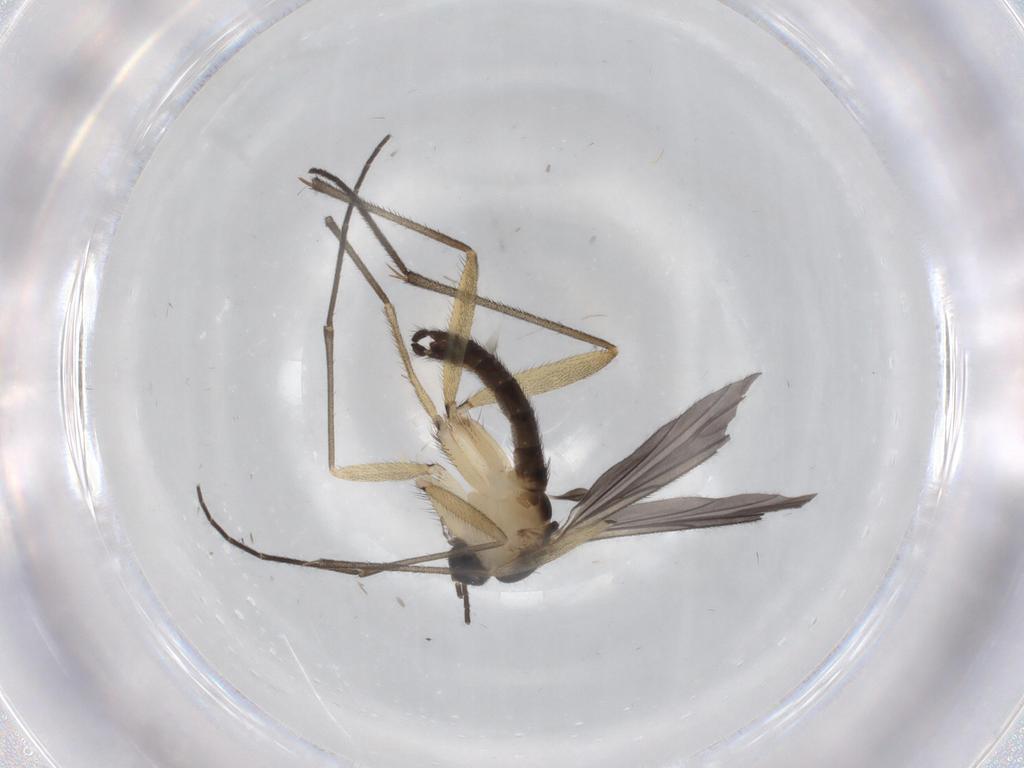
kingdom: Animalia
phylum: Arthropoda
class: Insecta
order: Diptera
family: Sciaridae
